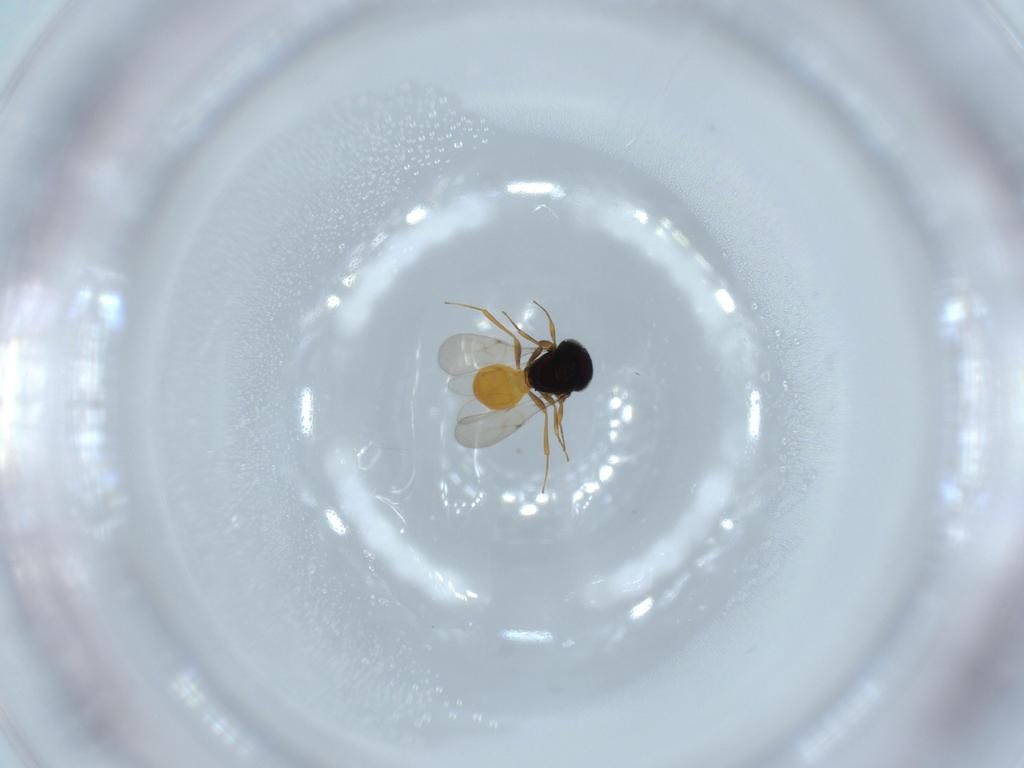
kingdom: Animalia
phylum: Arthropoda
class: Insecta
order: Hymenoptera
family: Scelionidae
